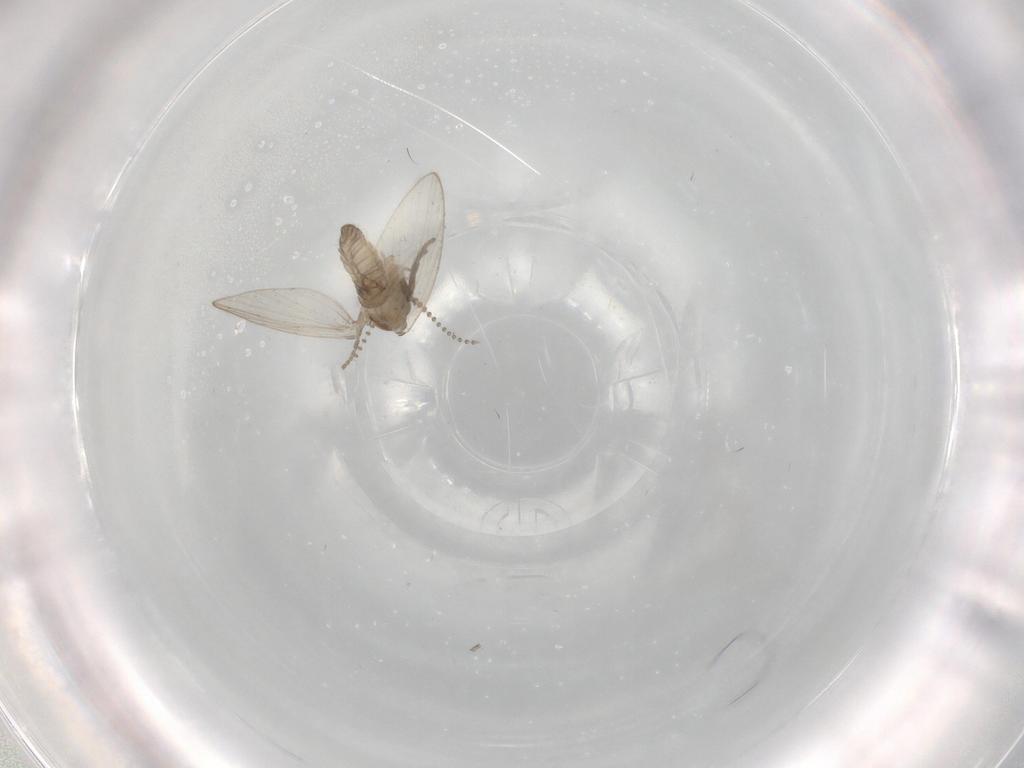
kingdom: Animalia
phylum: Arthropoda
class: Insecta
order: Diptera
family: Psychodidae
